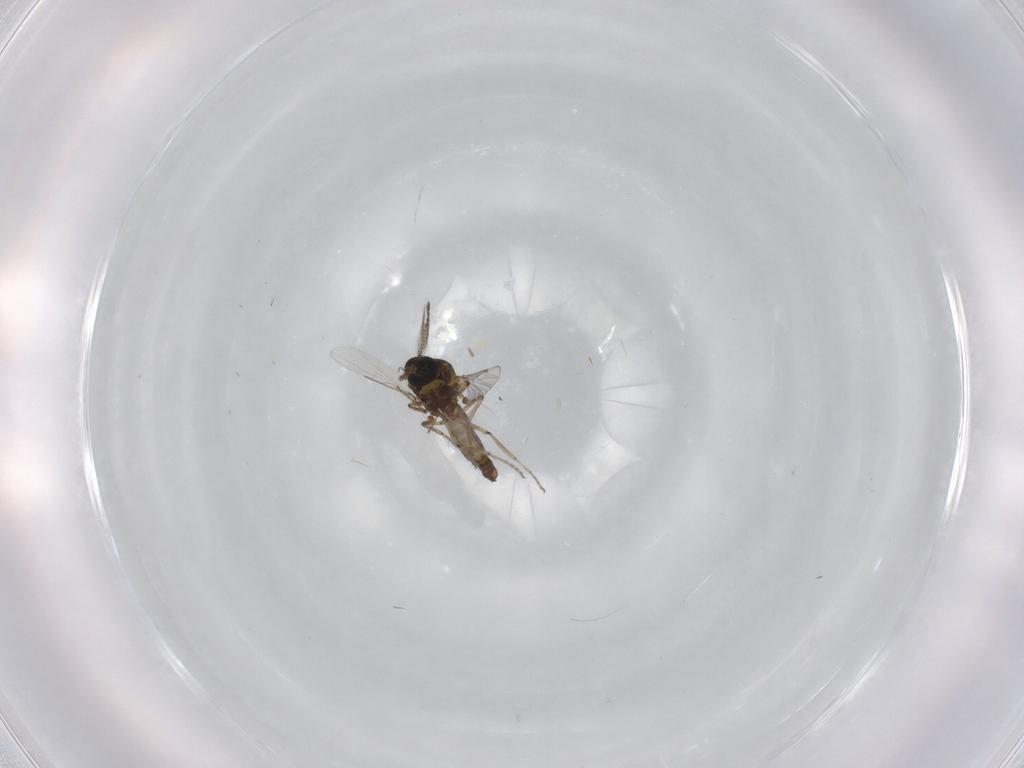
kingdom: Animalia
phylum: Arthropoda
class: Insecta
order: Diptera
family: Ceratopogonidae
